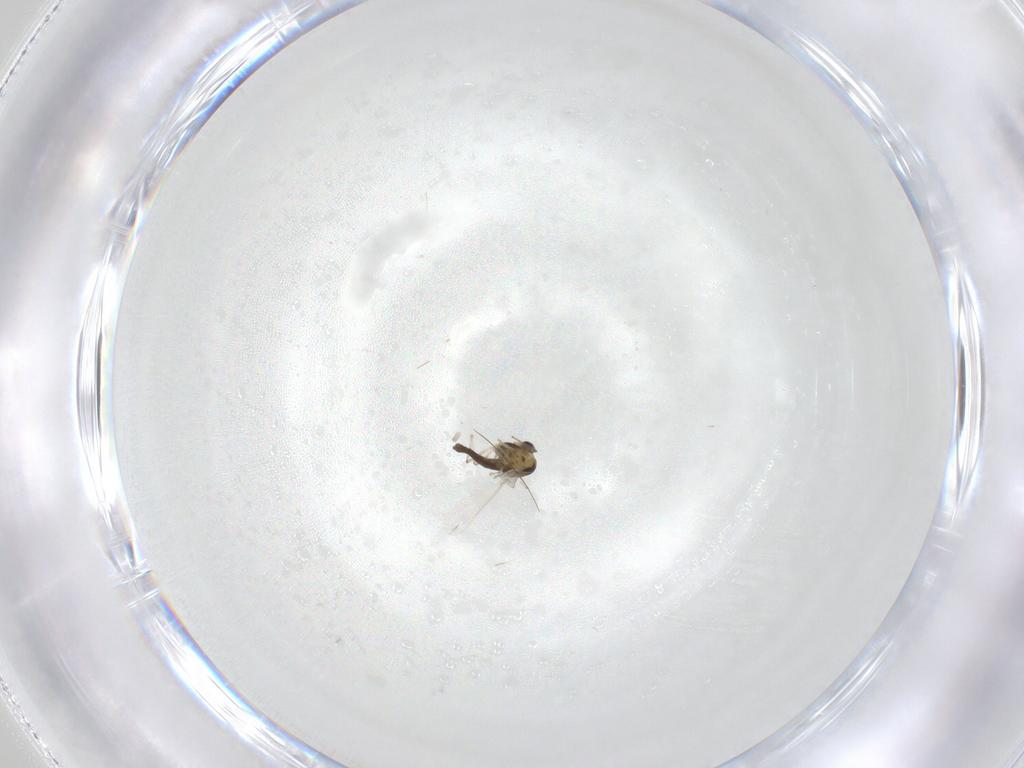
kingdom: Animalia
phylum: Arthropoda
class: Insecta
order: Diptera
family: Chironomidae
